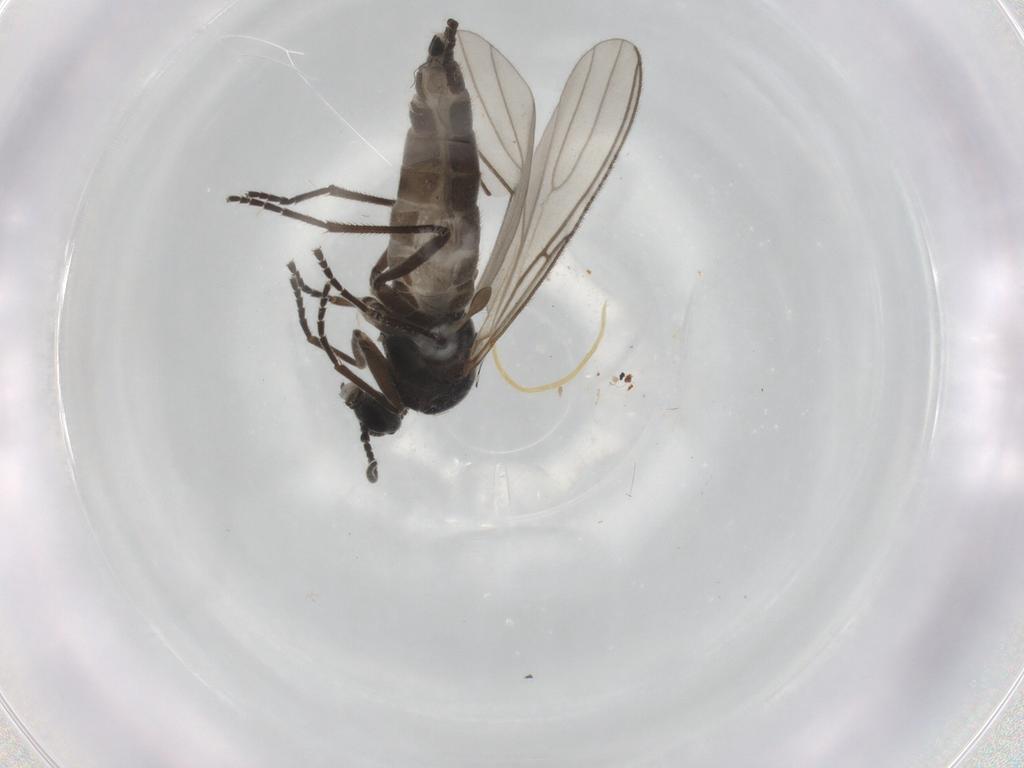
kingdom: Animalia
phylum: Arthropoda
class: Insecta
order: Diptera
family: Sciaridae
